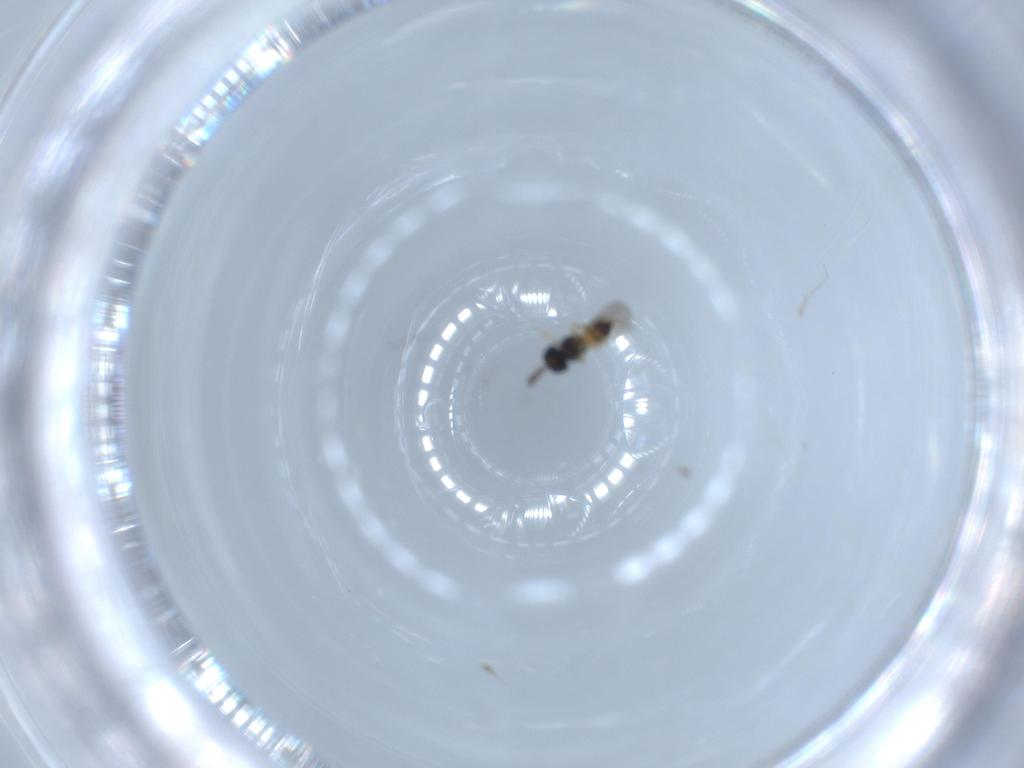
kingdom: Animalia
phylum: Arthropoda
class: Insecta
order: Hymenoptera
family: Scelionidae
